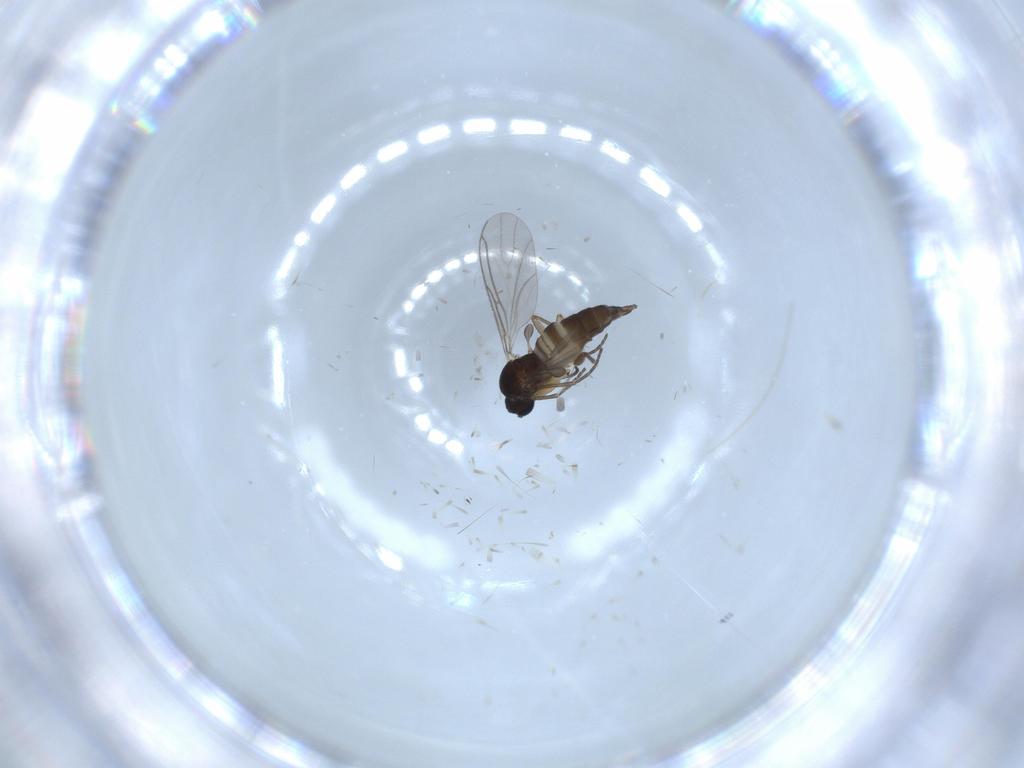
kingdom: Animalia
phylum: Arthropoda
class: Insecta
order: Diptera
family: Sciaridae
